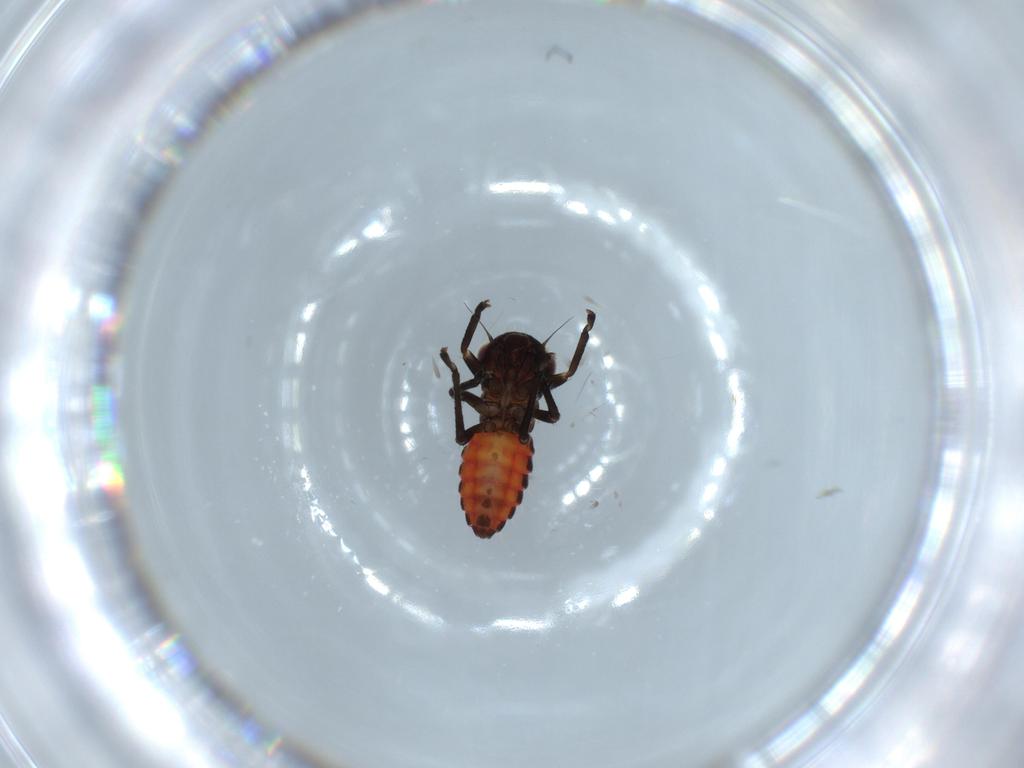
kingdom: Animalia
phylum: Arthropoda
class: Insecta
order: Hemiptera
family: Cicadellidae
